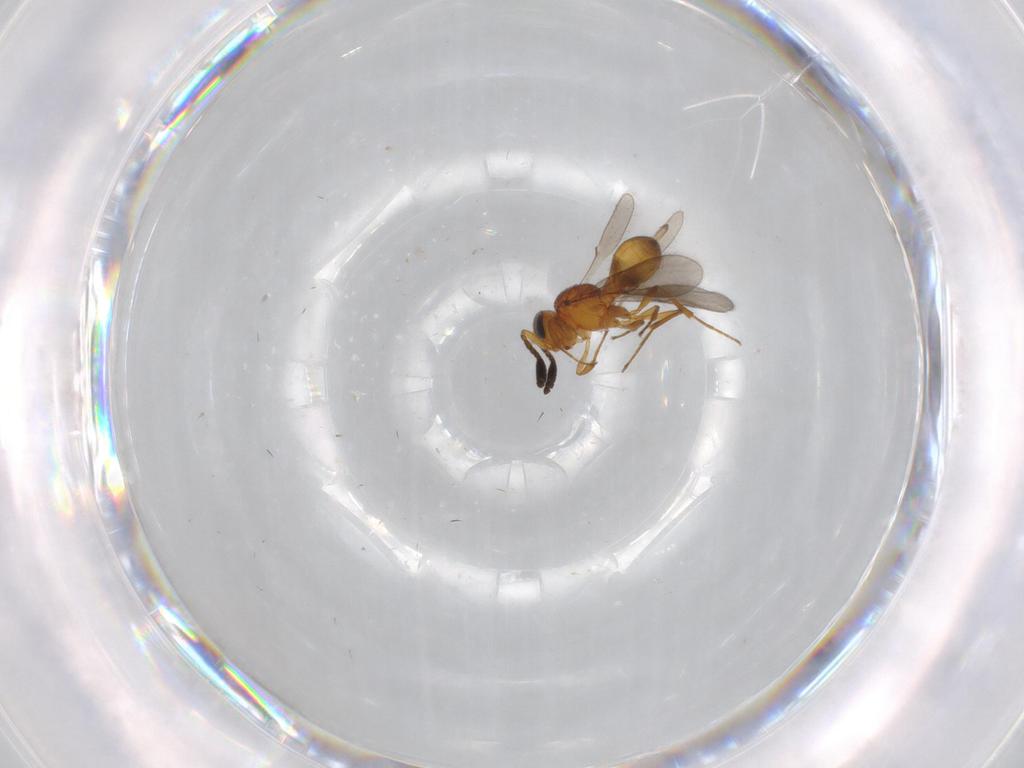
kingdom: Animalia
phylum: Arthropoda
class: Insecta
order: Hymenoptera
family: Scelionidae
